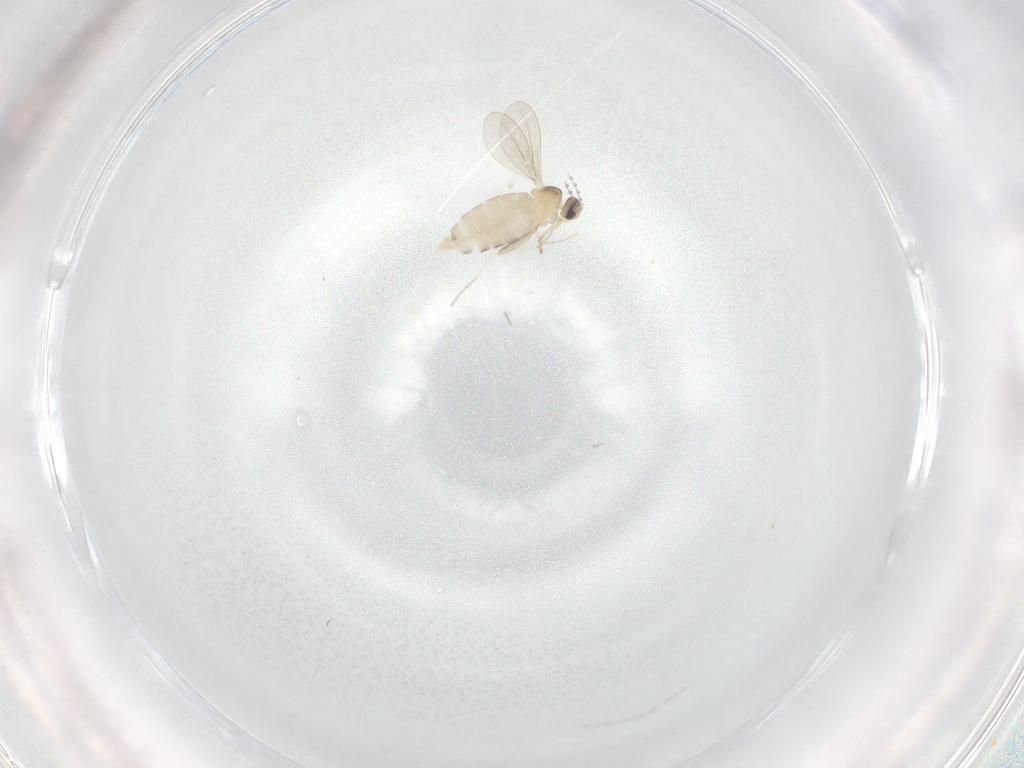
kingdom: Animalia
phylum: Arthropoda
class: Insecta
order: Diptera
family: Cecidomyiidae
